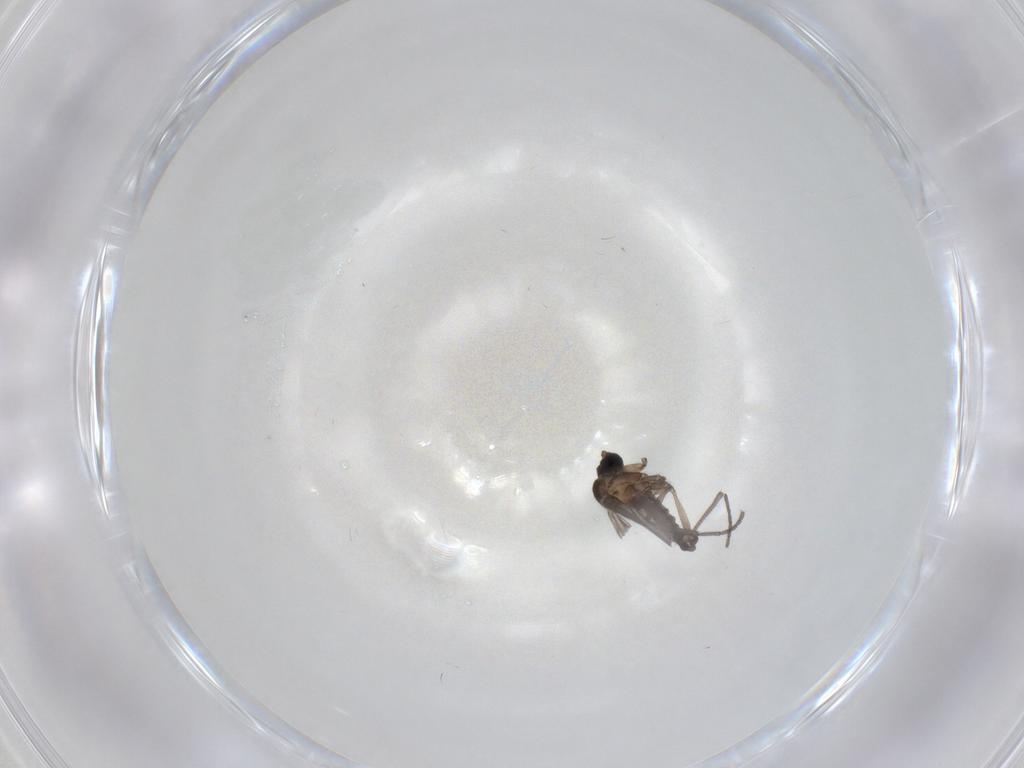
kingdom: Animalia
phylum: Arthropoda
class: Insecta
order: Diptera
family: Sciaridae
